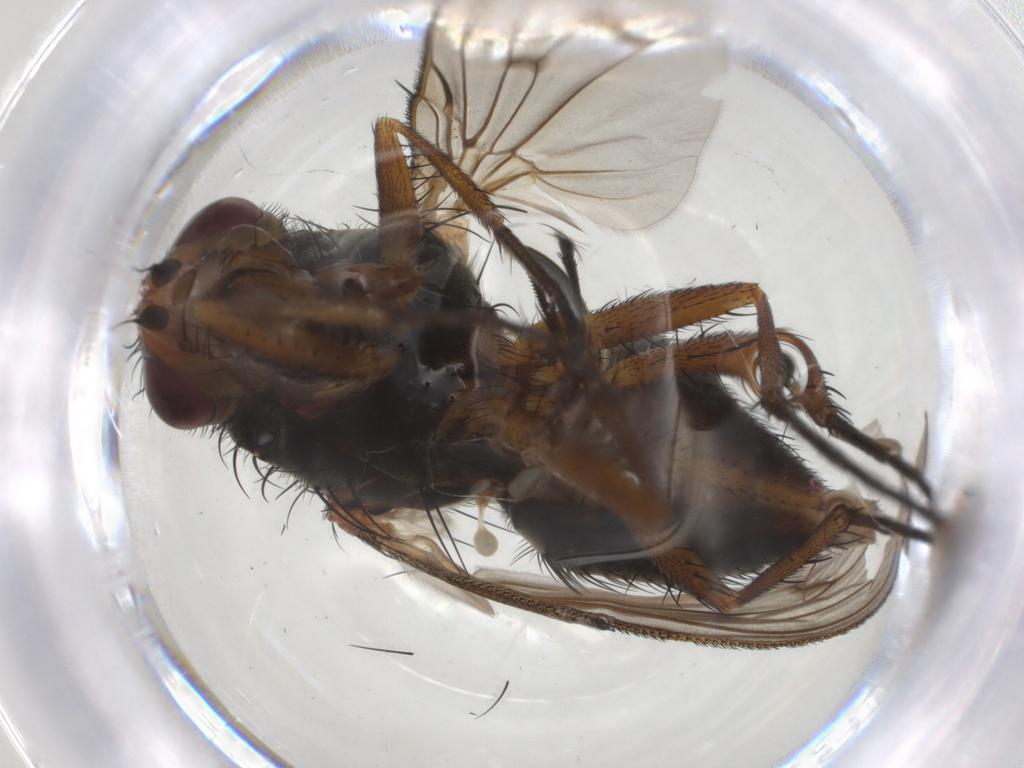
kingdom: Animalia
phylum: Arthropoda
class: Insecta
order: Diptera
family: Anthomyiidae
